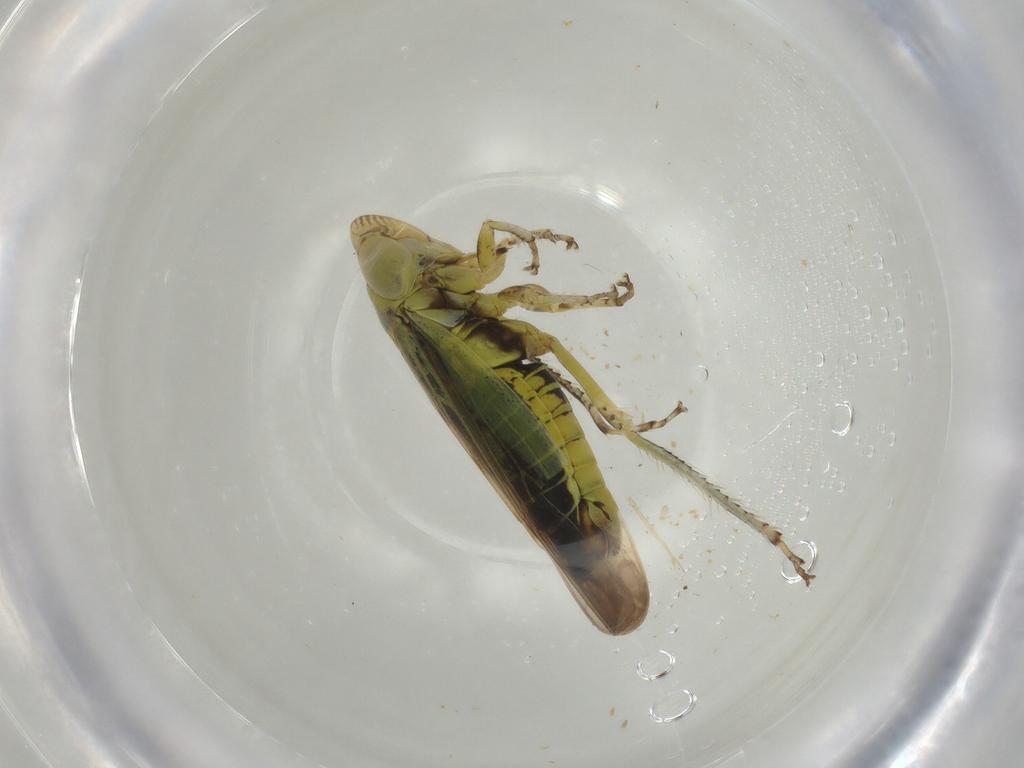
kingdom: Animalia
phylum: Arthropoda
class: Insecta
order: Hemiptera
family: Cicadellidae
